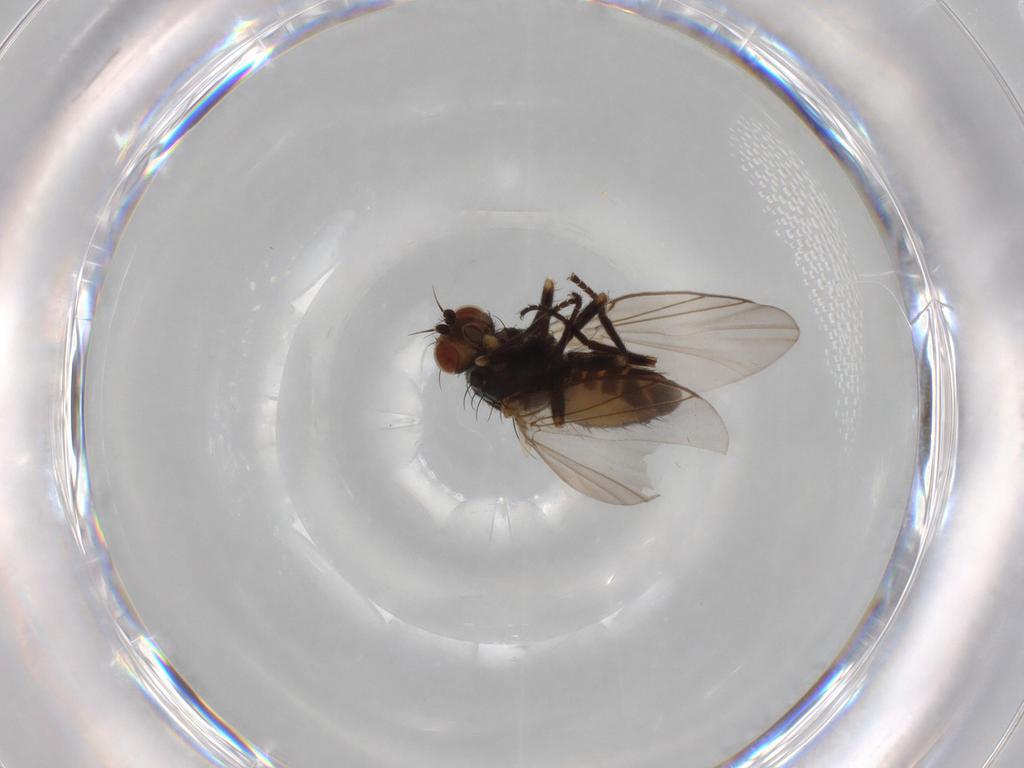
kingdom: Animalia
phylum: Arthropoda
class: Insecta
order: Diptera
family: Agromyzidae
